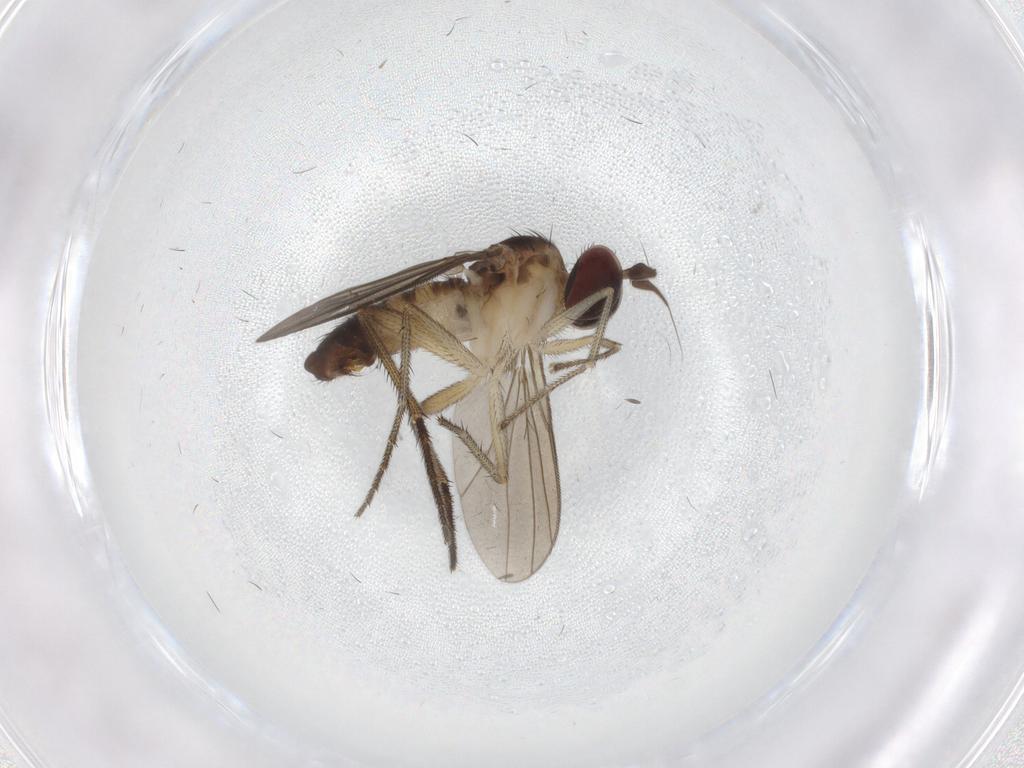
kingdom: Animalia
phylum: Arthropoda
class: Insecta
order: Diptera
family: Dolichopodidae
